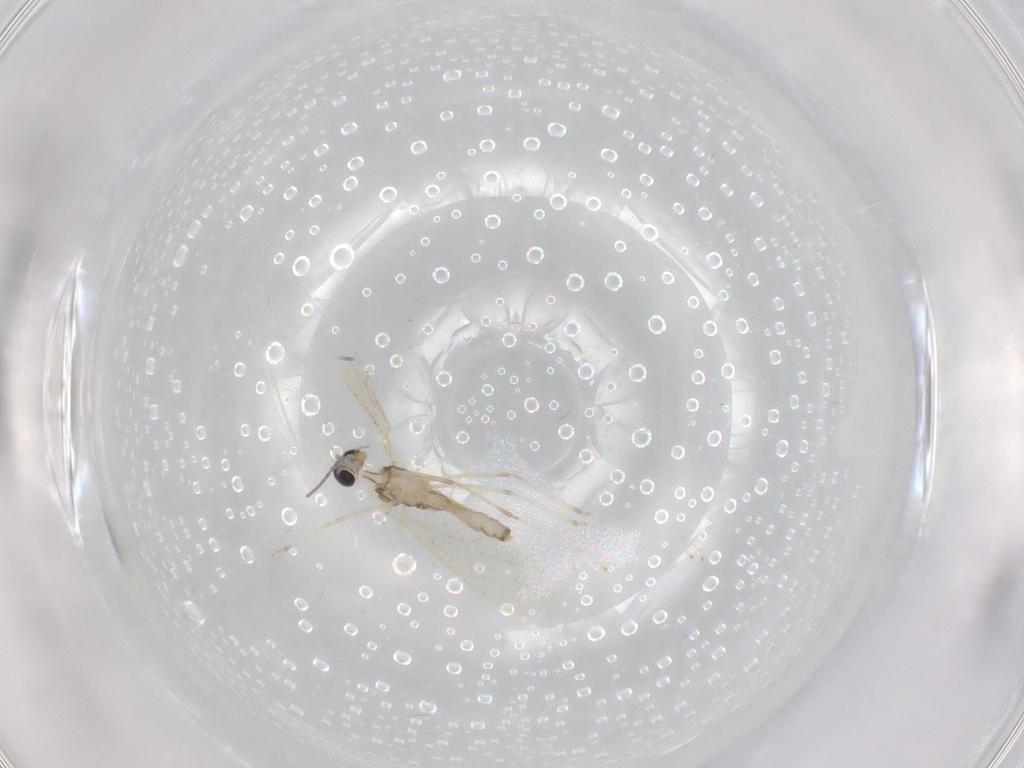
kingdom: Animalia
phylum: Arthropoda
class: Insecta
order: Diptera
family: Cecidomyiidae
